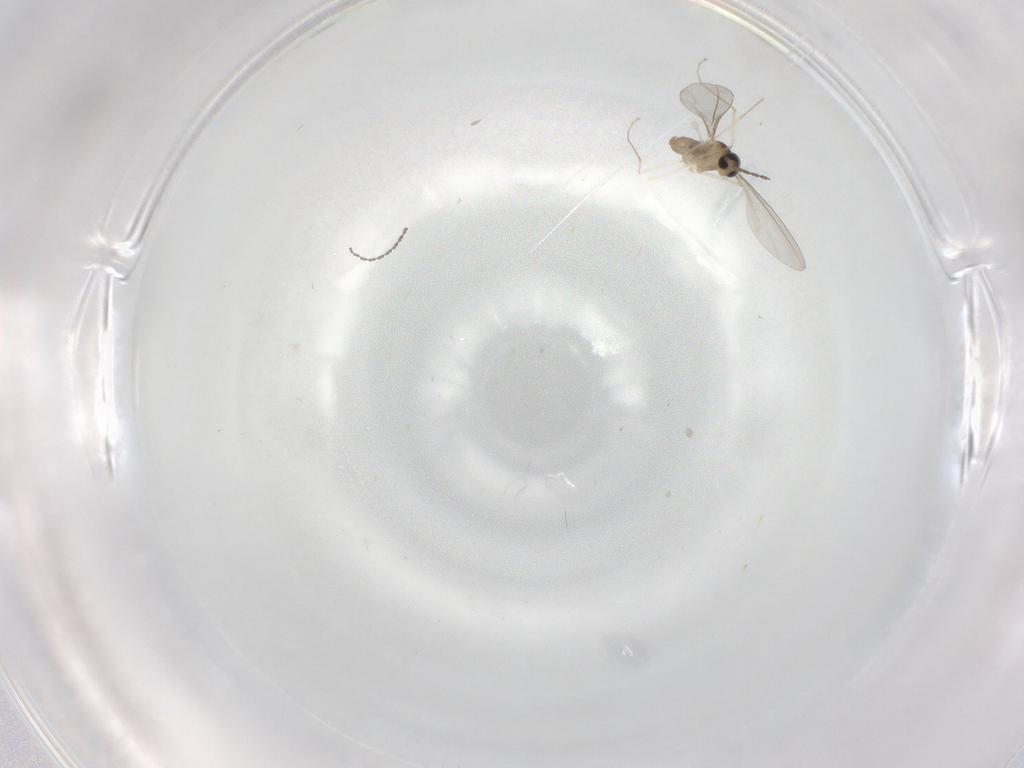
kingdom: Animalia
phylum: Arthropoda
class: Insecta
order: Diptera
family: Cecidomyiidae
